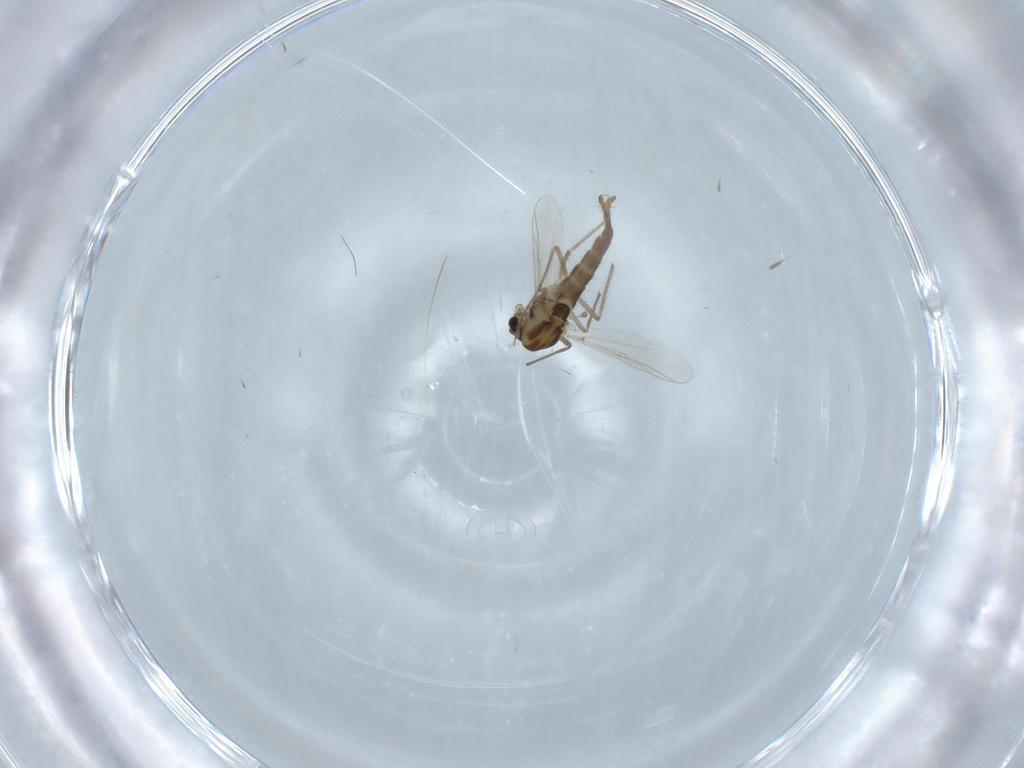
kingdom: Animalia
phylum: Arthropoda
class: Insecta
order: Diptera
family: Chironomidae
